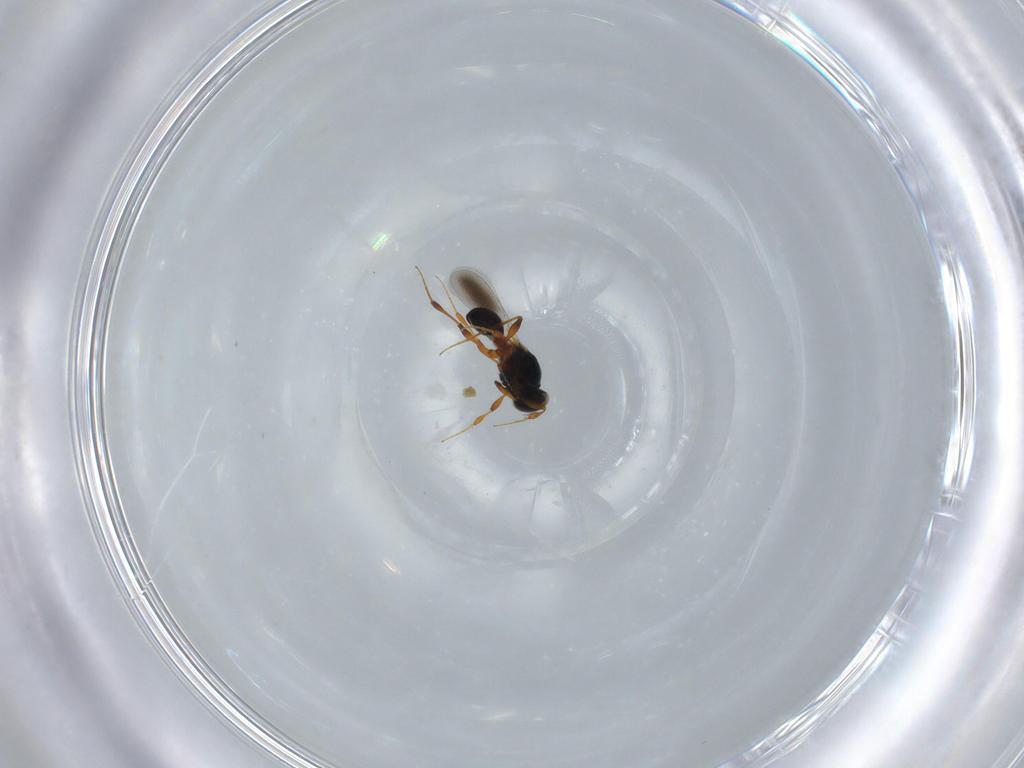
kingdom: Animalia
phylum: Arthropoda
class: Insecta
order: Hymenoptera
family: Platygastridae
